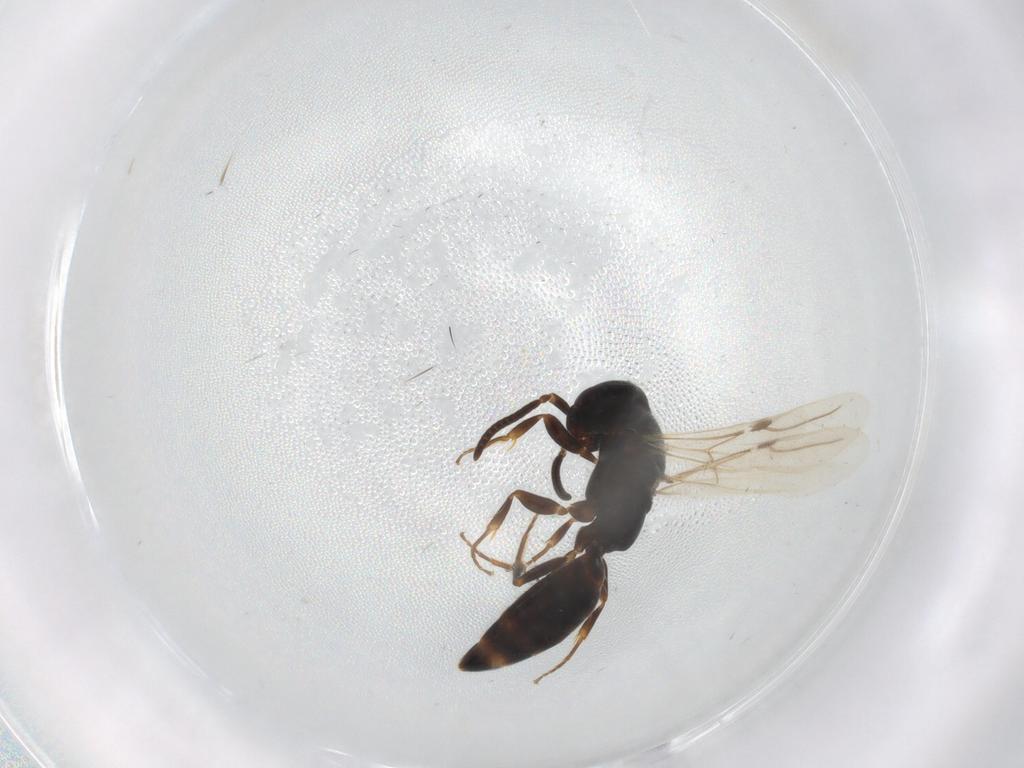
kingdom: Animalia
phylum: Arthropoda
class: Insecta
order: Hymenoptera
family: Bethylidae
